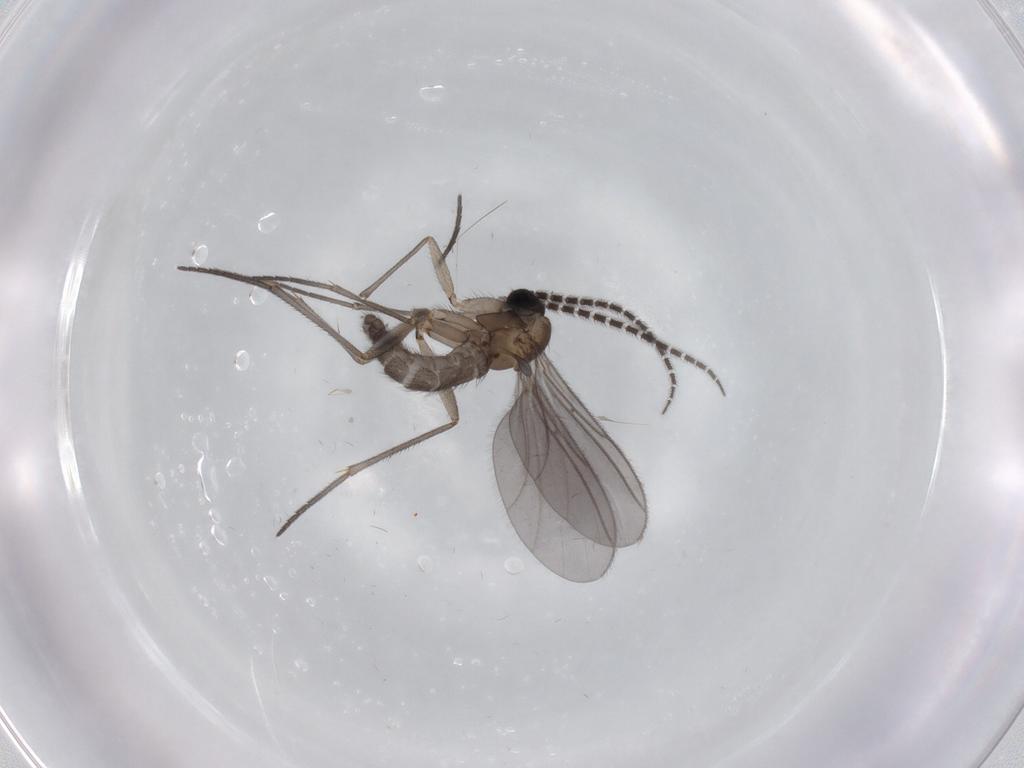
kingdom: Animalia
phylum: Arthropoda
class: Insecta
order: Diptera
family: Sciaridae
